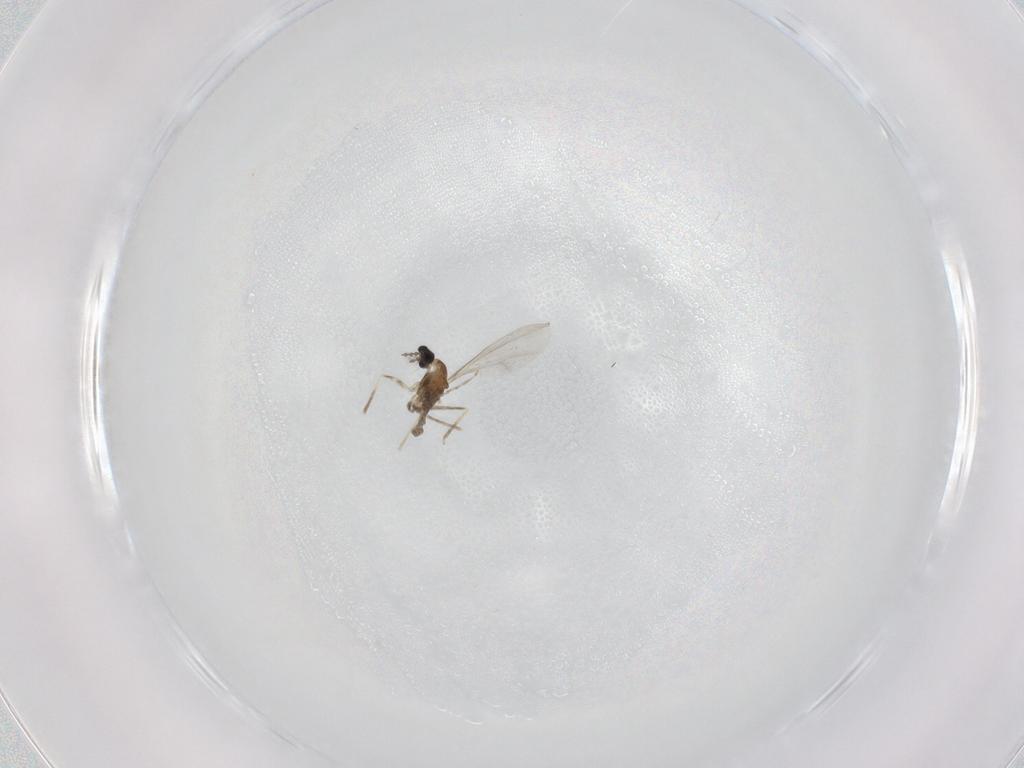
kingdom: Animalia
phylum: Arthropoda
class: Insecta
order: Diptera
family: Cecidomyiidae
